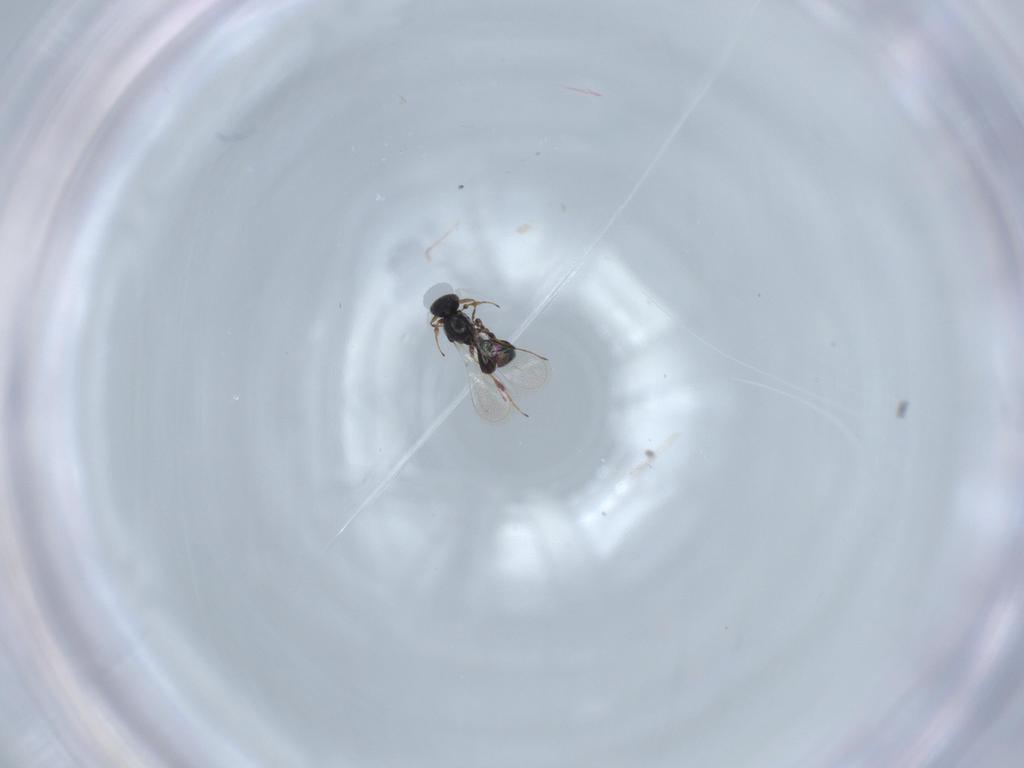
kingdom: Animalia
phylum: Arthropoda
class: Insecta
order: Hymenoptera
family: Platygastridae
